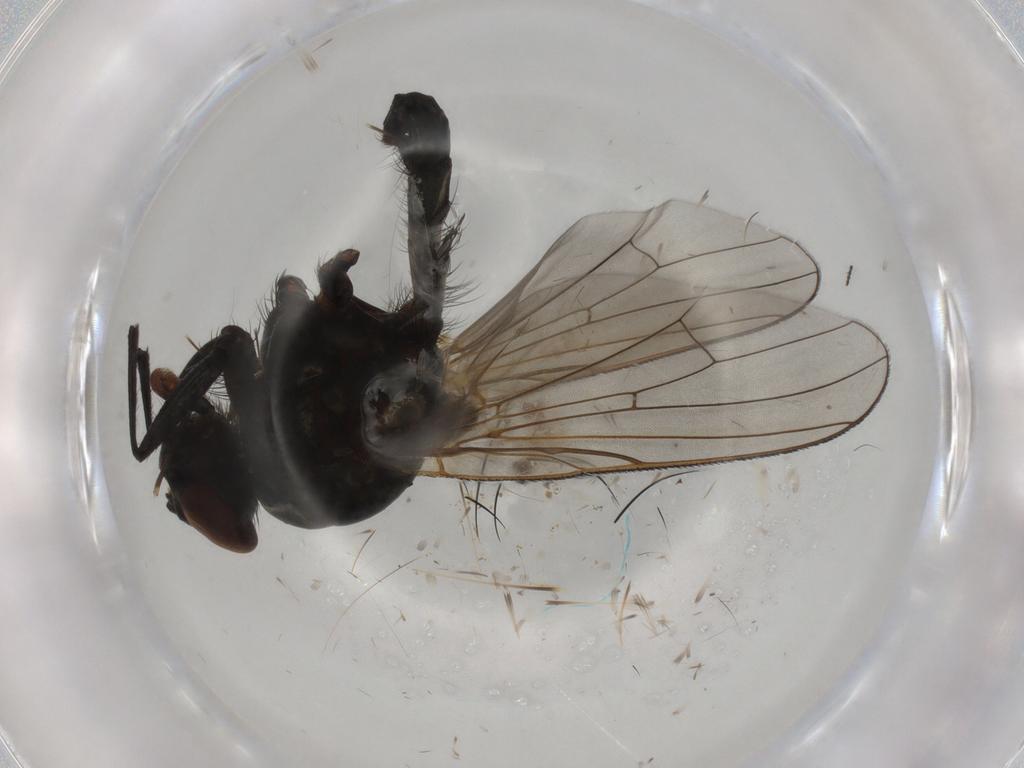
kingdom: Animalia
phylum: Arthropoda
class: Insecta
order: Diptera
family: Anthomyiidae
